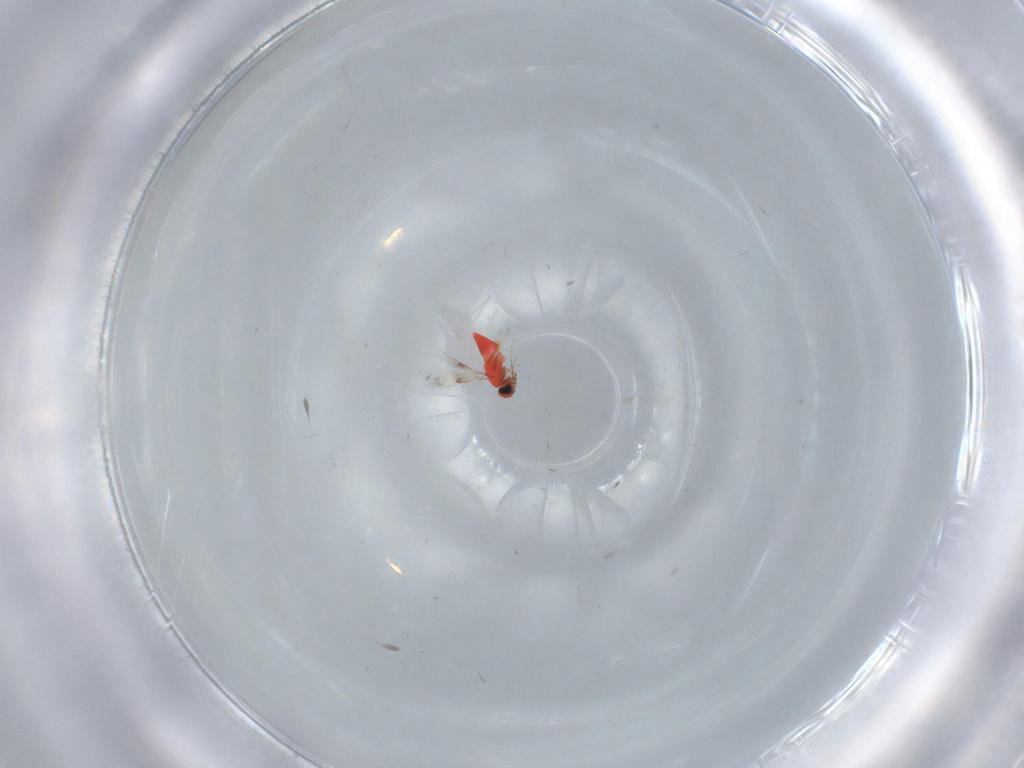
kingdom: Animalia
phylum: Arthropoda
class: Insecta
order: Hymenoptera
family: Trichogrammatidae
